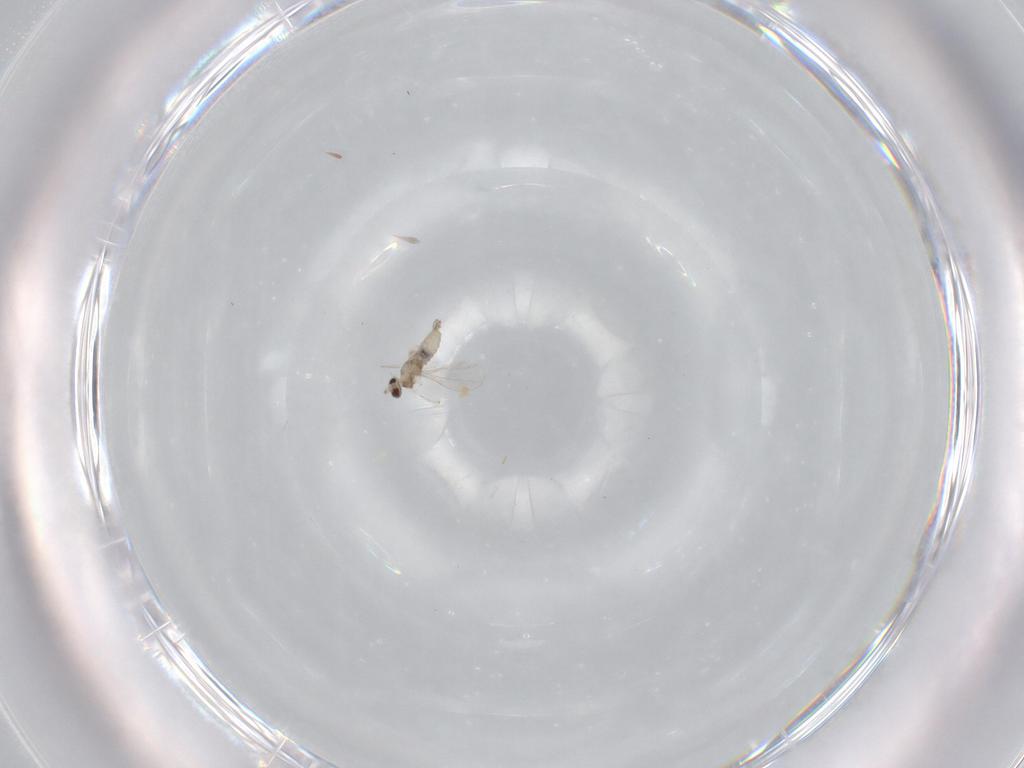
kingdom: Animalia
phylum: Arthropoda
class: Insecta
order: Diptera
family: Cecidomyiidae
